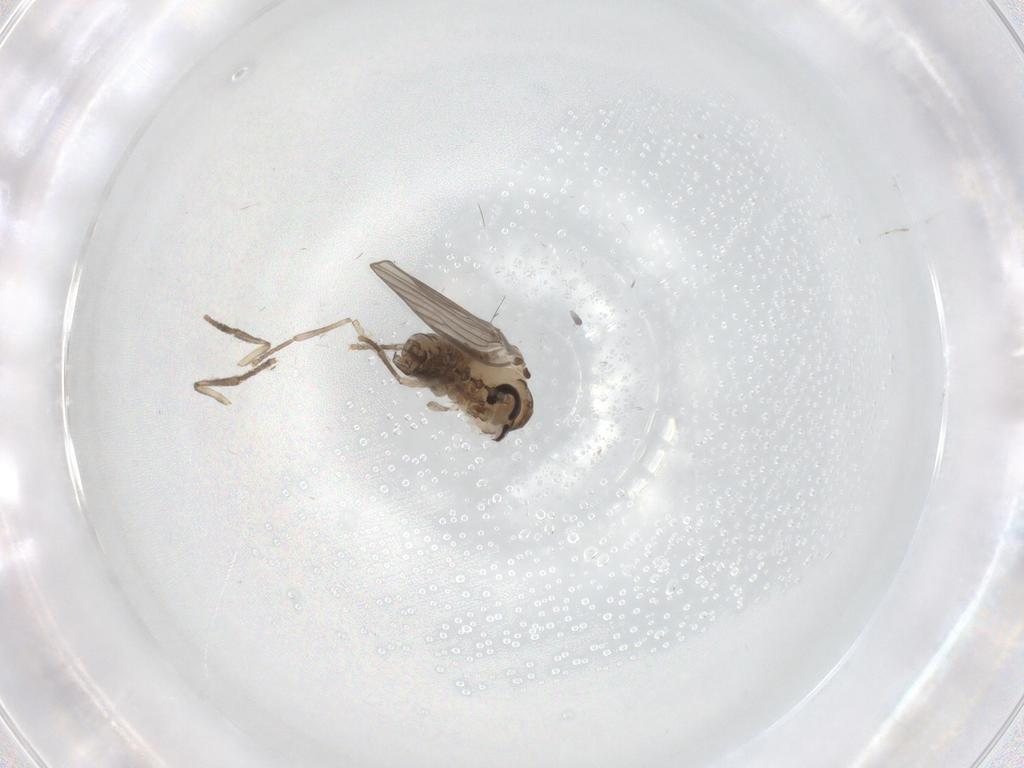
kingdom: Animalia
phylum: Arthropoda
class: Insecta
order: Diptera
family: Psychodidae
